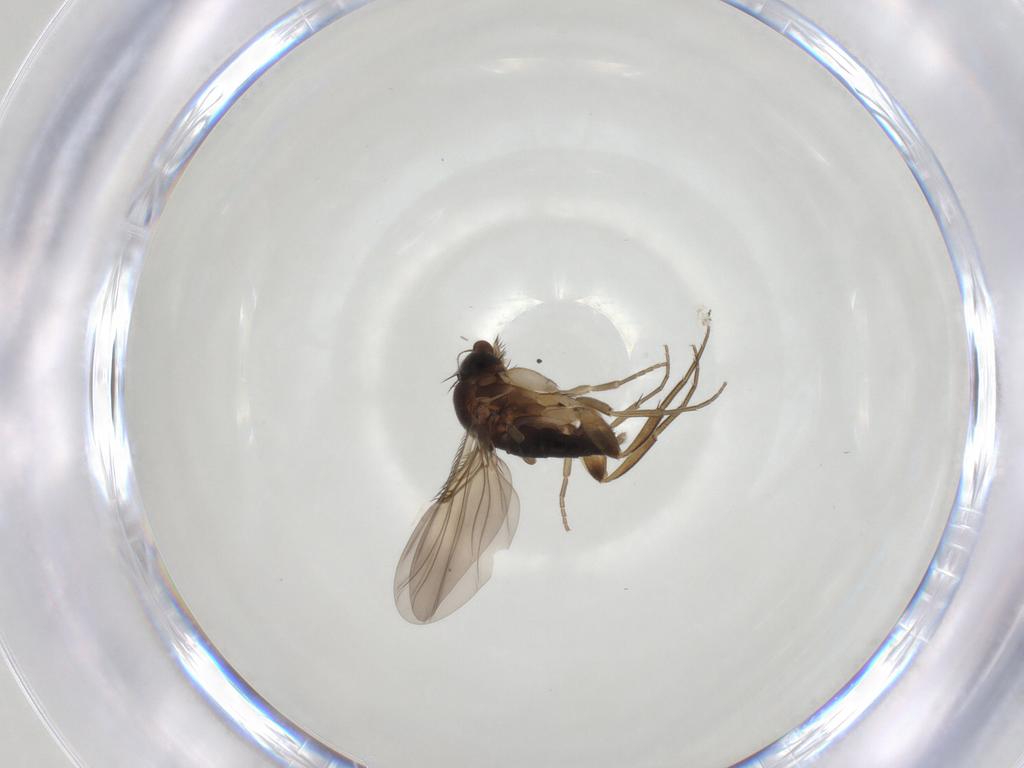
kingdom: Animalia
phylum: Arthropoda
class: Insecta
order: Diptera
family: Phoridae
